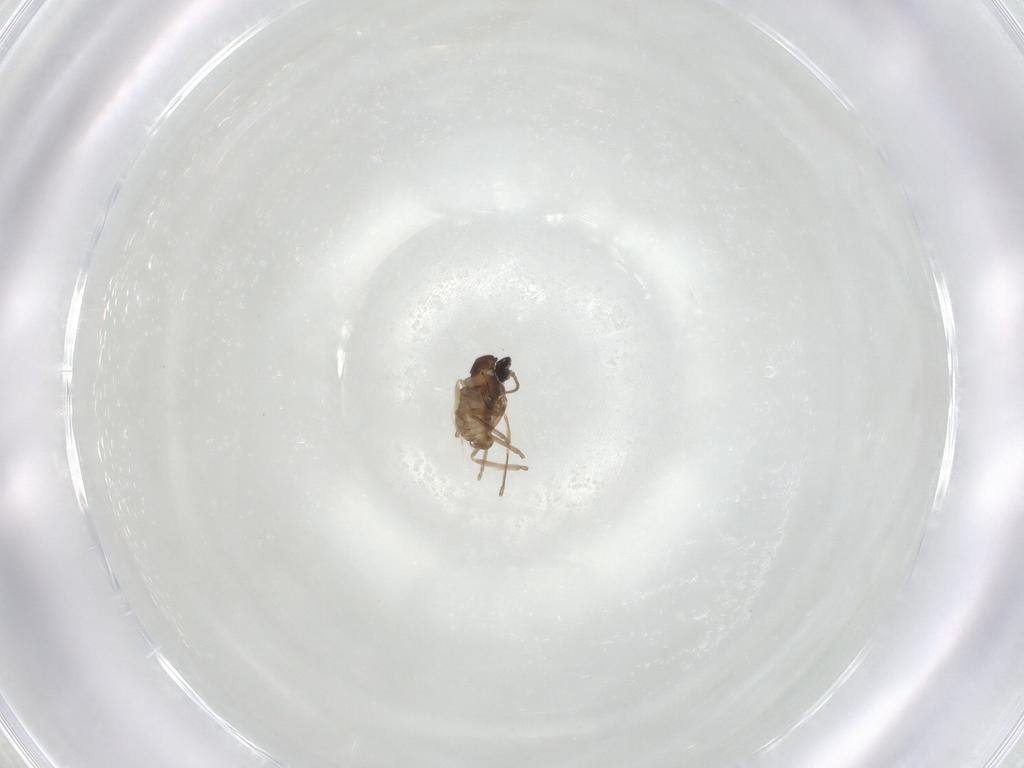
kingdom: Animalia
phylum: Arthropoda
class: Insecta
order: Diptera
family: Cecidomyiidae
